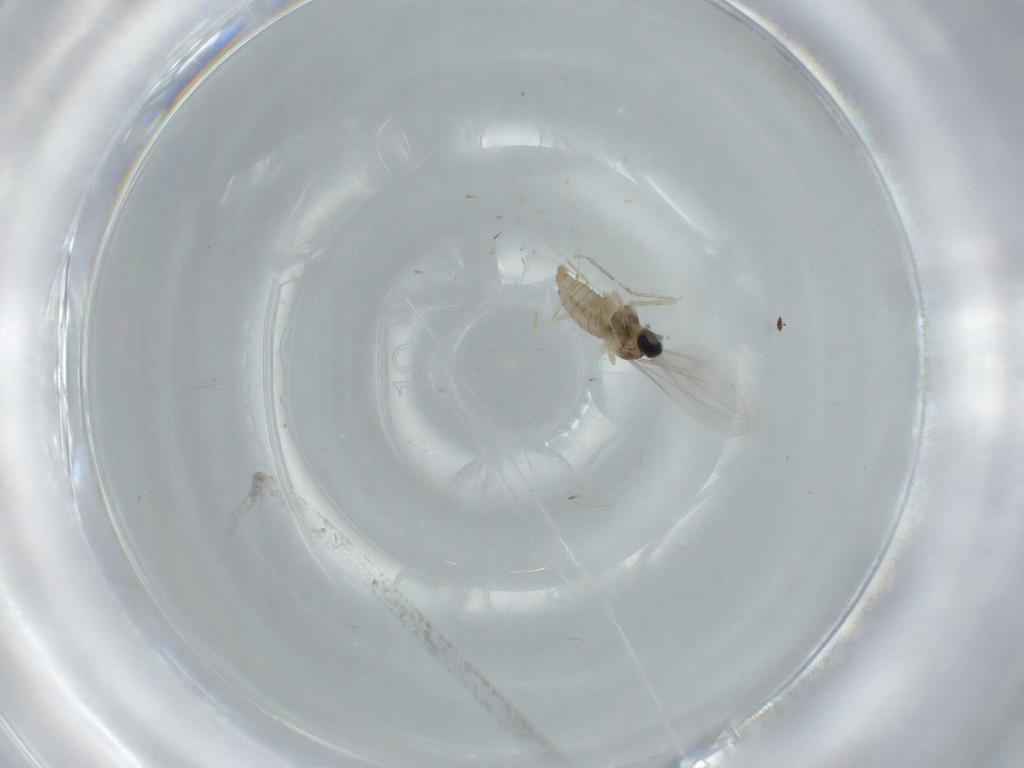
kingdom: Animalia
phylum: Arthropoda
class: Insecta
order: Diptera
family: Cecidomyiidae
